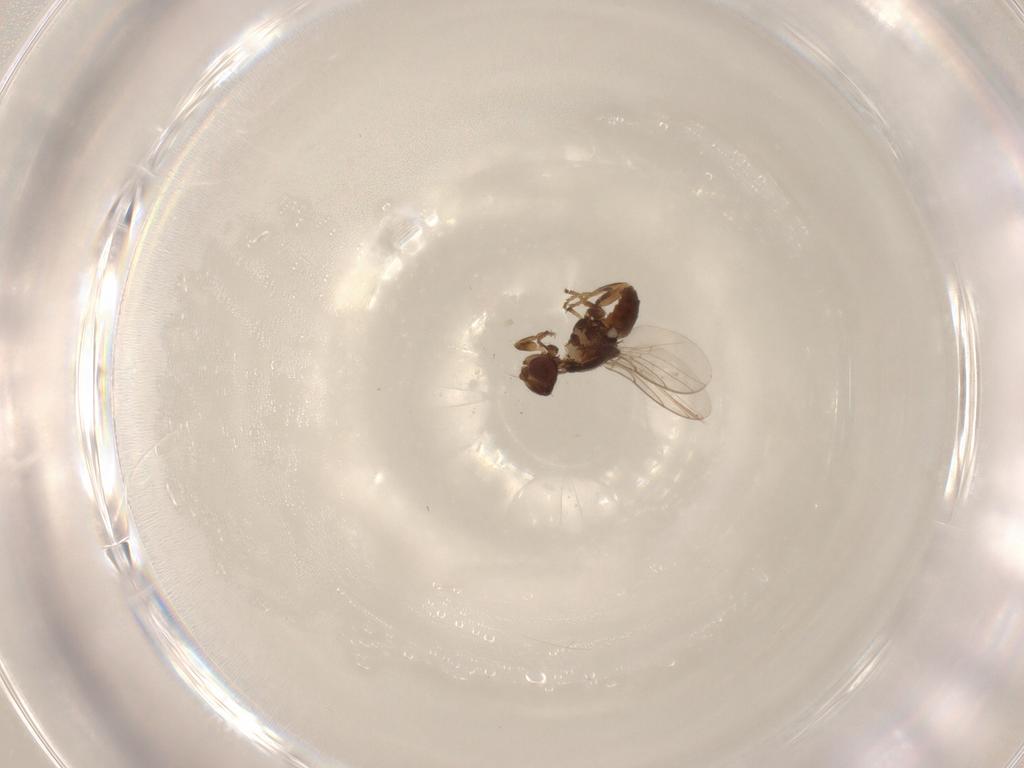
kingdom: Animalia
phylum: Arthropoda
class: Insecta
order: Diptera
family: Chloropidae
